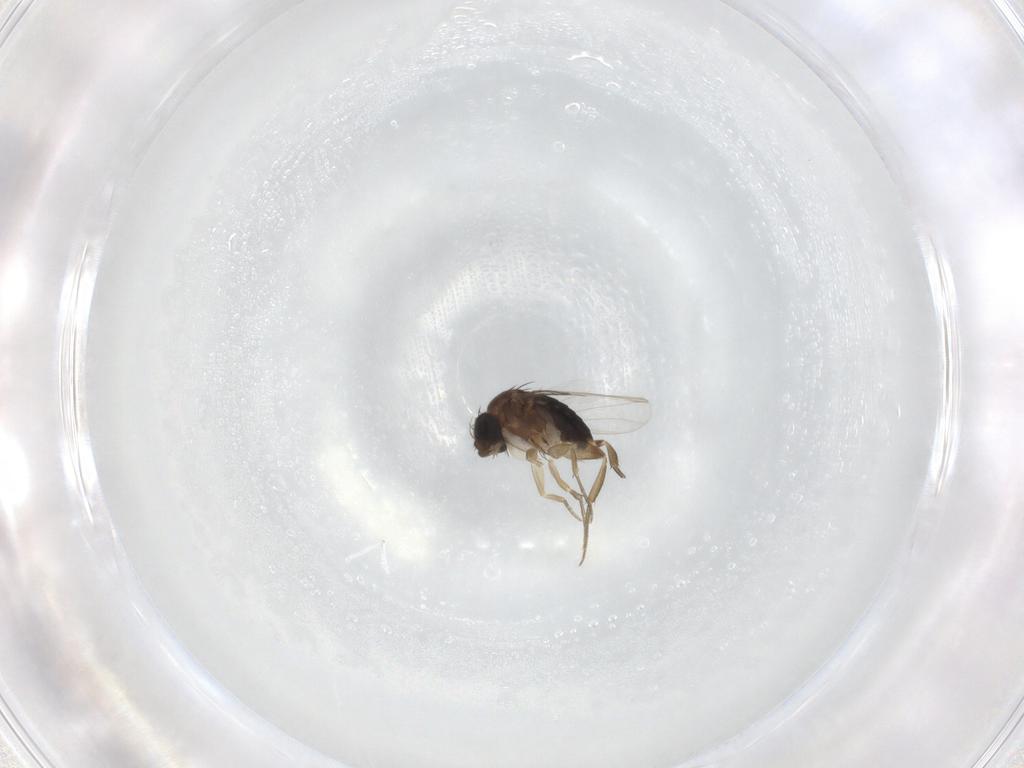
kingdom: Animalia
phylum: Arthropoda
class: Insecta
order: Diptera
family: Phoridae
